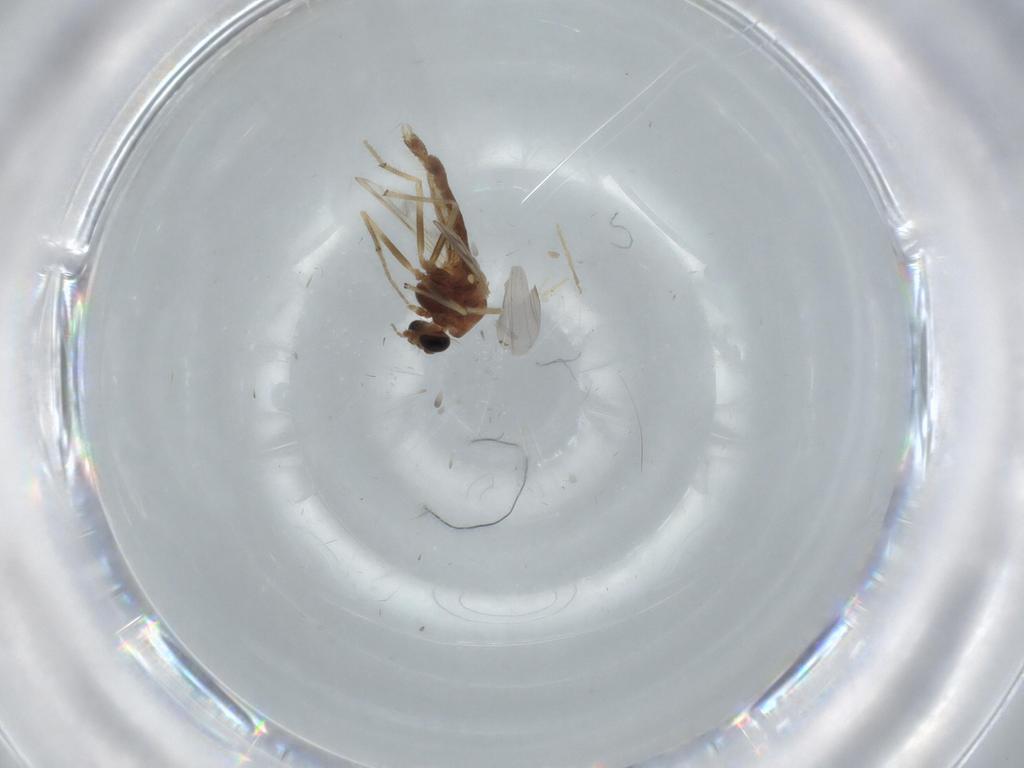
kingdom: Animalia
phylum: Arthropoda
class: Insecta
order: Diptera
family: Chironomidae
